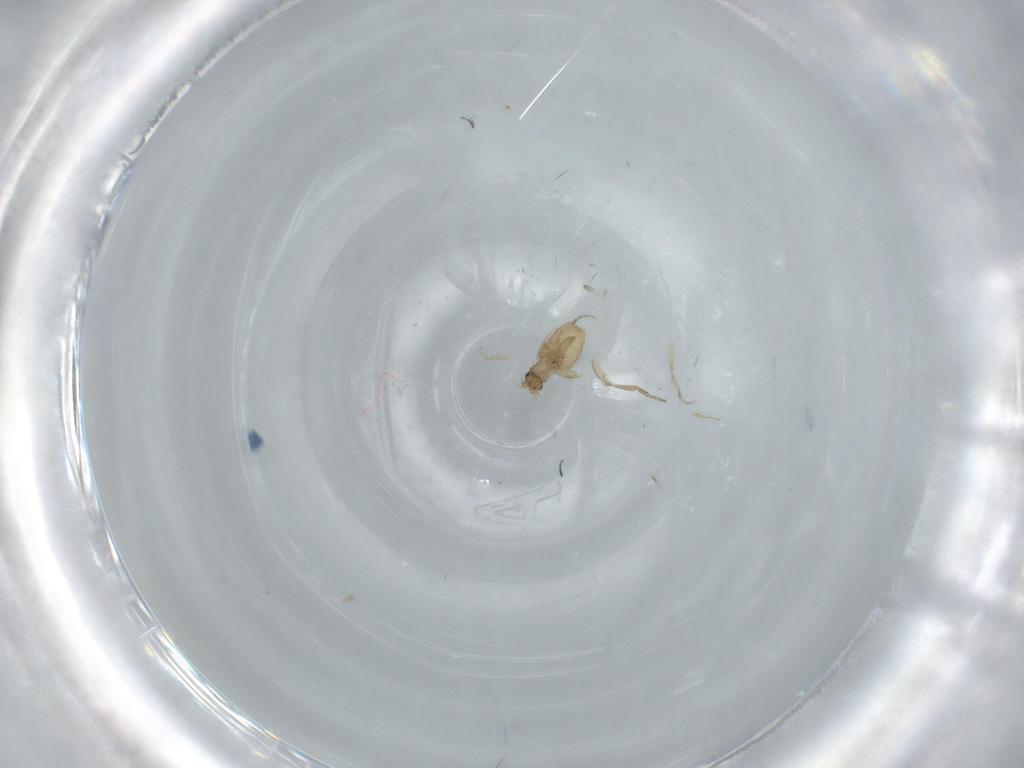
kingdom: Animalia
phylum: Arthropoda
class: Insecta
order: Diptera
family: Phoridae
